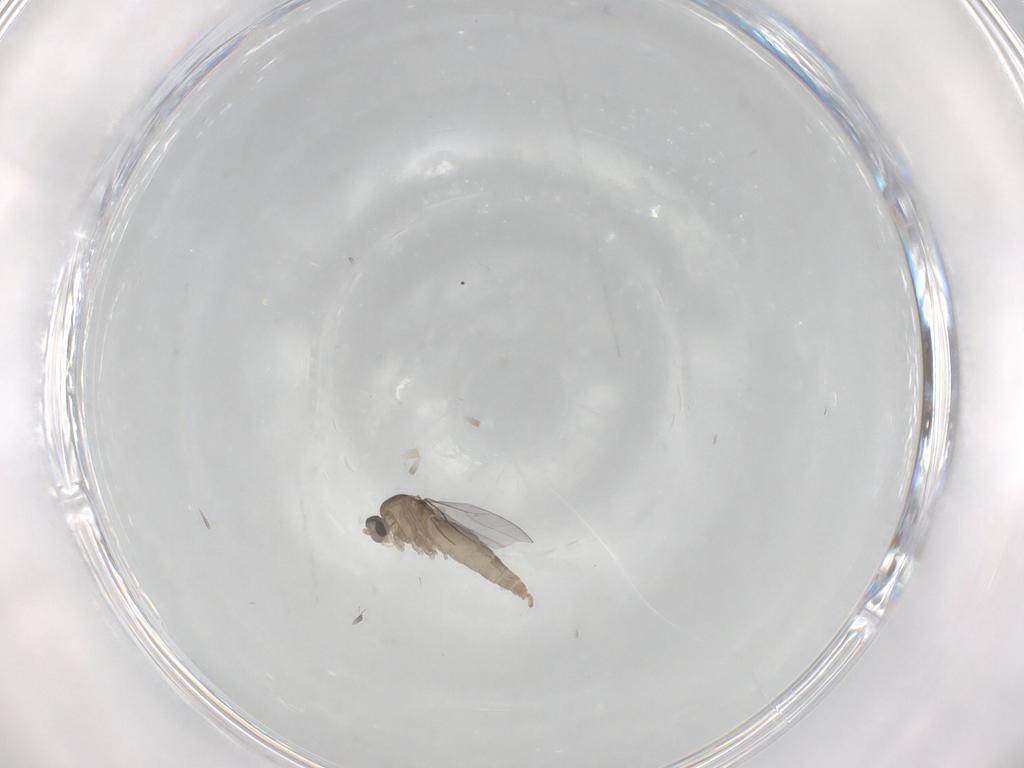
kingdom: Animalia
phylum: Arthropoda
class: Insecta
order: Diptera
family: Cecidomyiidae
